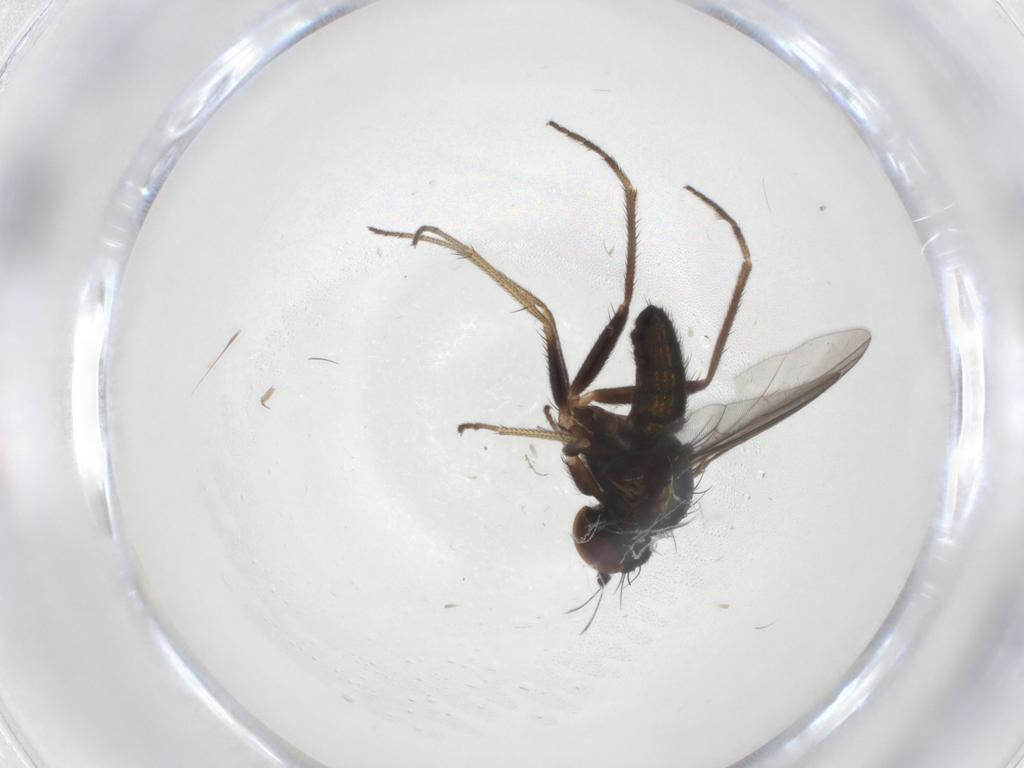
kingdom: Animalia
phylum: Arthropoda
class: Insecta
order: Diptera
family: Dolichopodidae
